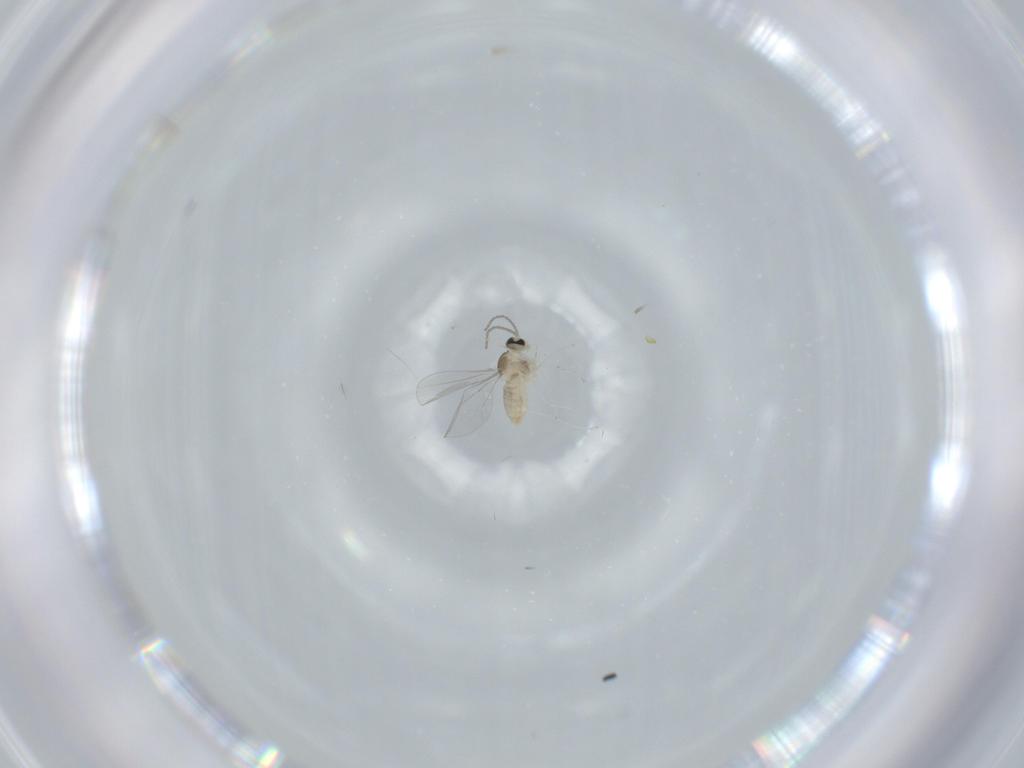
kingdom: Animalia
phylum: Arthropoda
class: Insecta
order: Diptera
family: Cecidomyiidae
